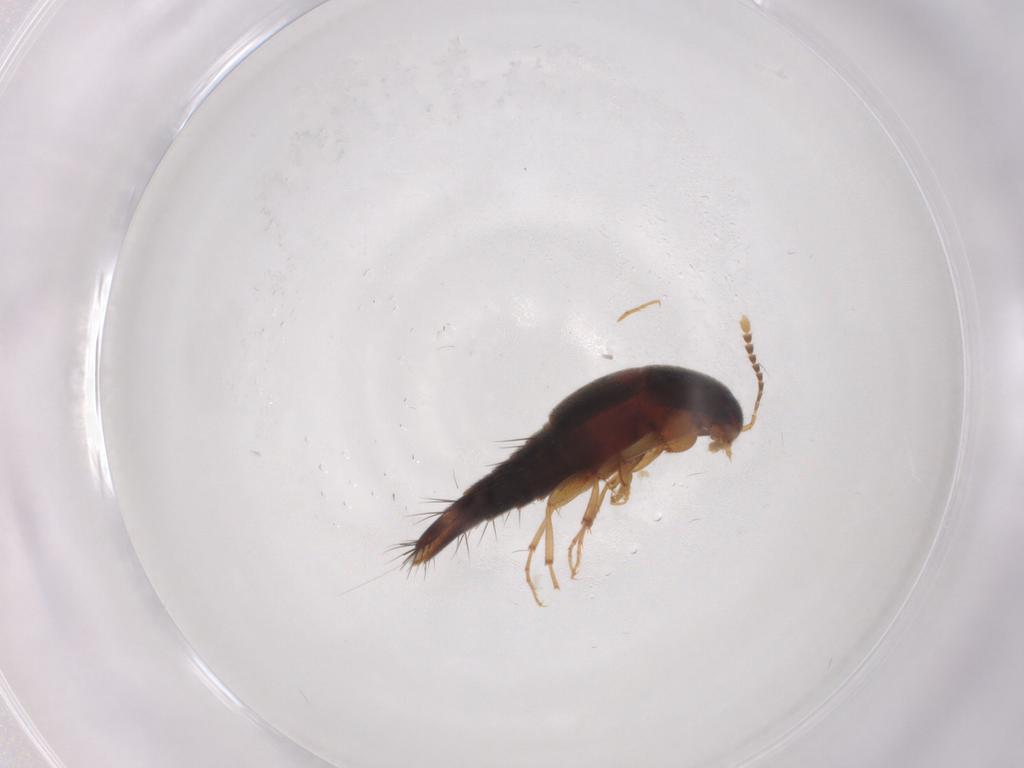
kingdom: Animalia
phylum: Arthropoda
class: Insecta
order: Coleoptera
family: Staphylinidae
